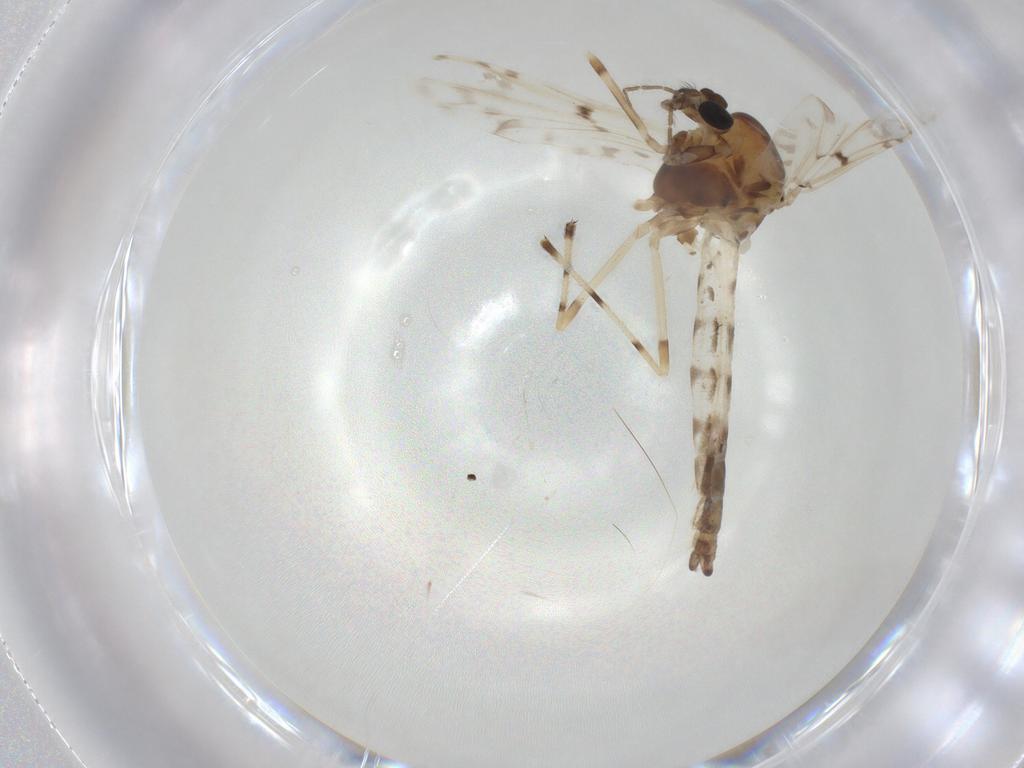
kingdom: Animalia
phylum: Arthropoda
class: Insecta
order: Diptera
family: Chironomidae
